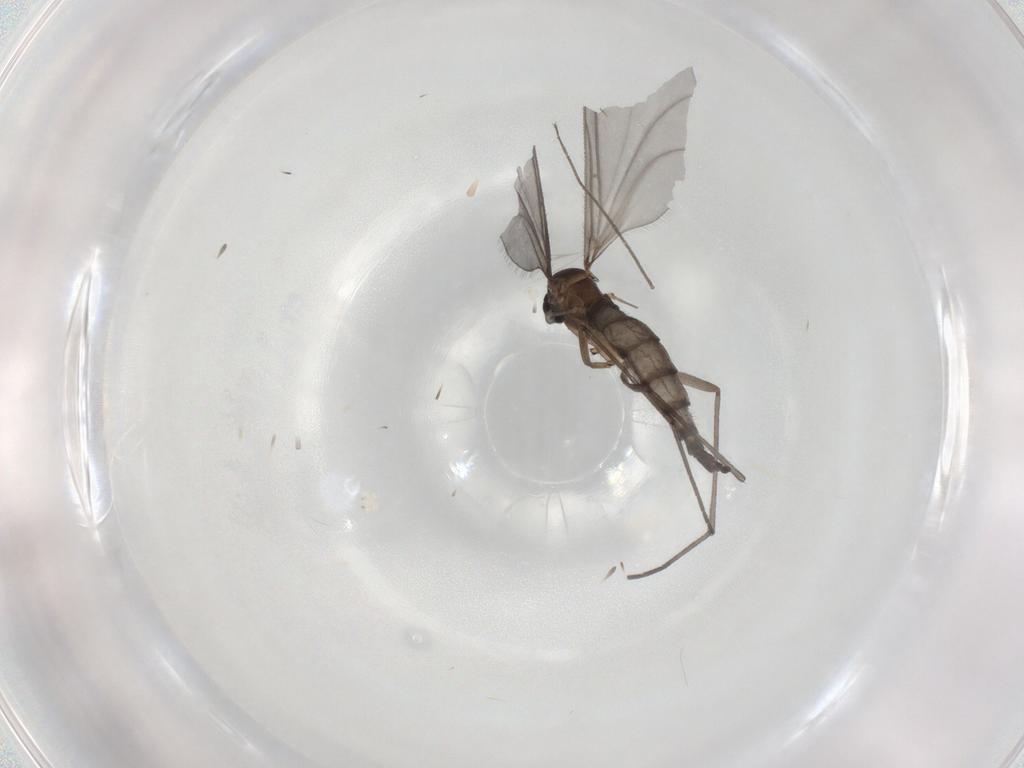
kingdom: Animalia
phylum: Arthropoda
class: Insecta
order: Diptera
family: Sciaridae
